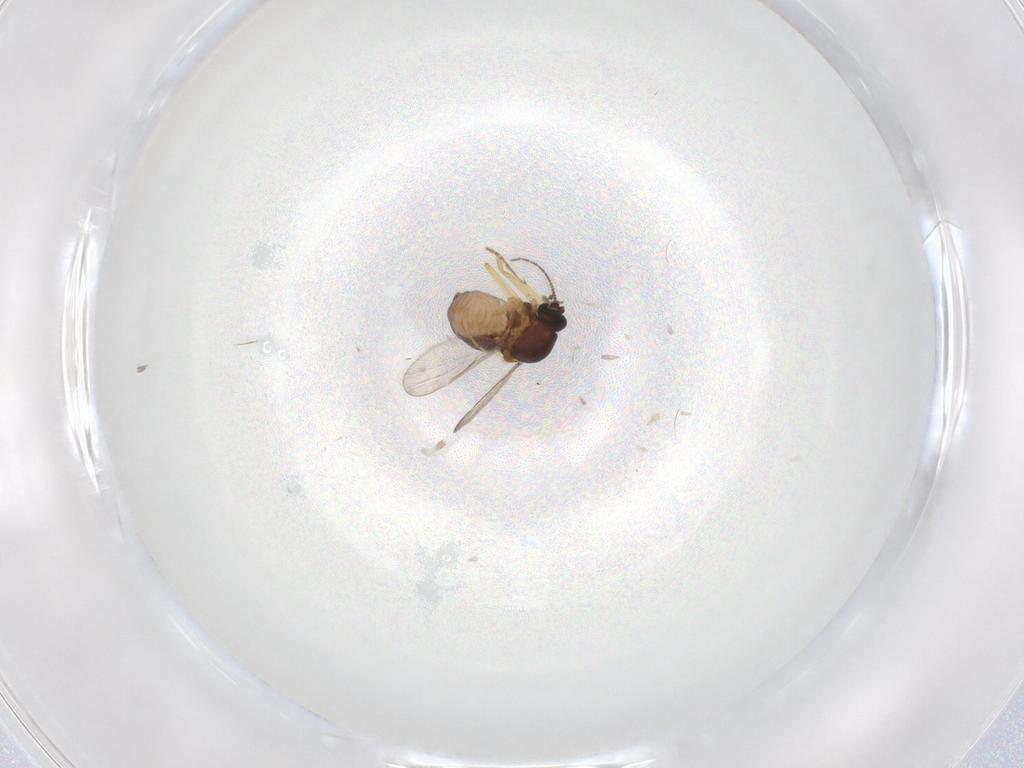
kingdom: Animalia
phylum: Arthropoda
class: Insecta
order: Diptera
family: Ceratopogonidae
